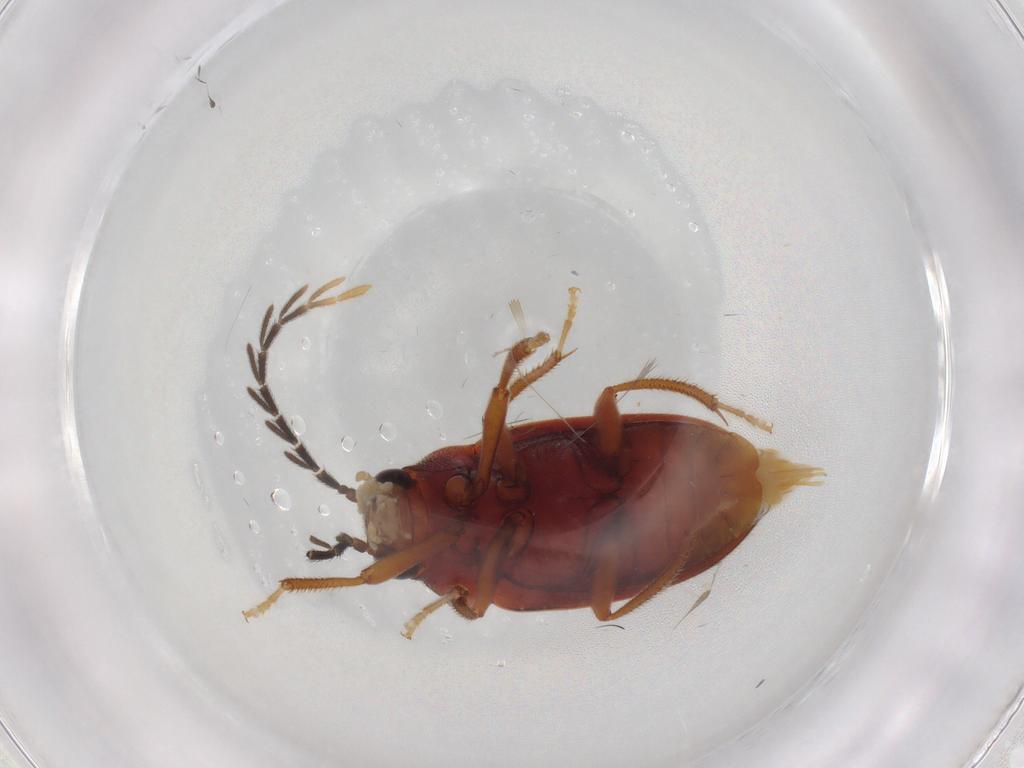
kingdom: Animalia
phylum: Arthropoda
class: Insecta
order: Coleoptera
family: Ptilodactylidae
